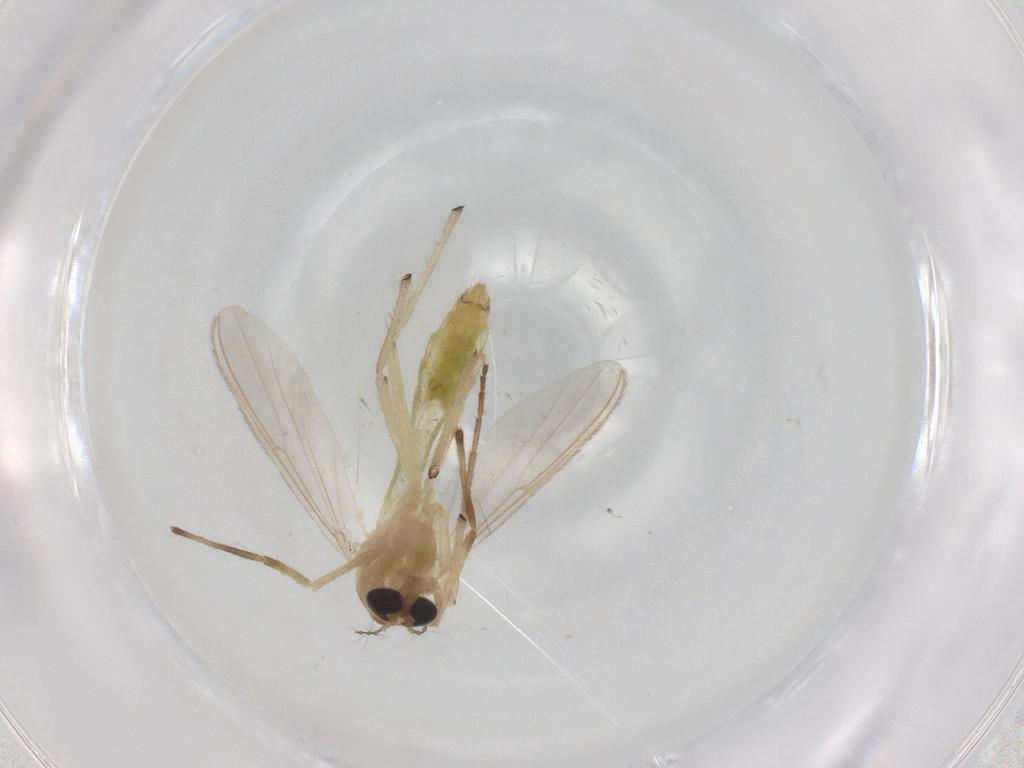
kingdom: Animalia
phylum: Arthropoda
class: Insecta
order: Diptera
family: Chironomidae
